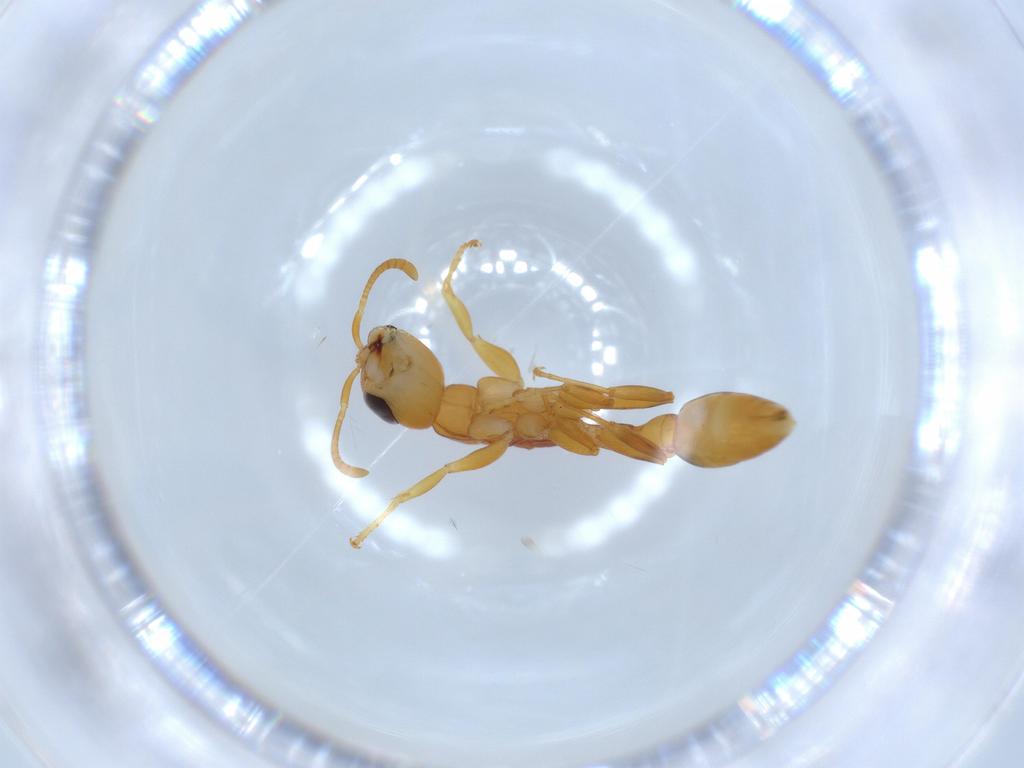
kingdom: Animalia
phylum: Arthropoda
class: Insecta
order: Hymenoptera
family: Formicidae
